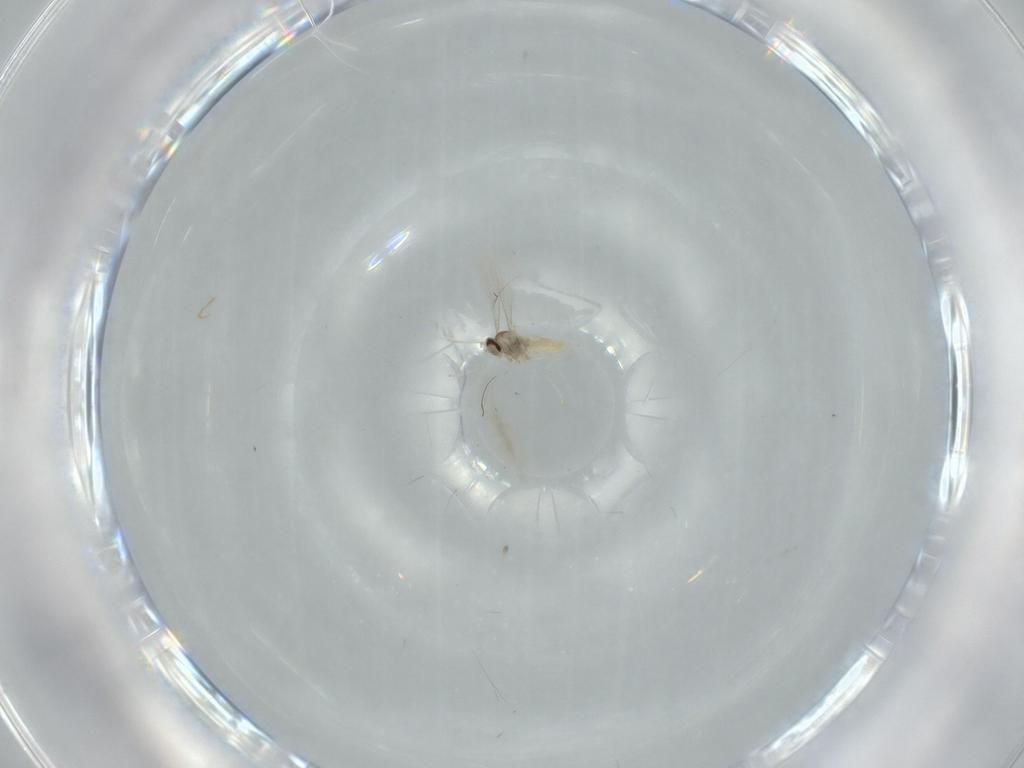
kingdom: Animalia
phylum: Arthropoda
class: Insecta
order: Diptera
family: Cecidomyiidae
